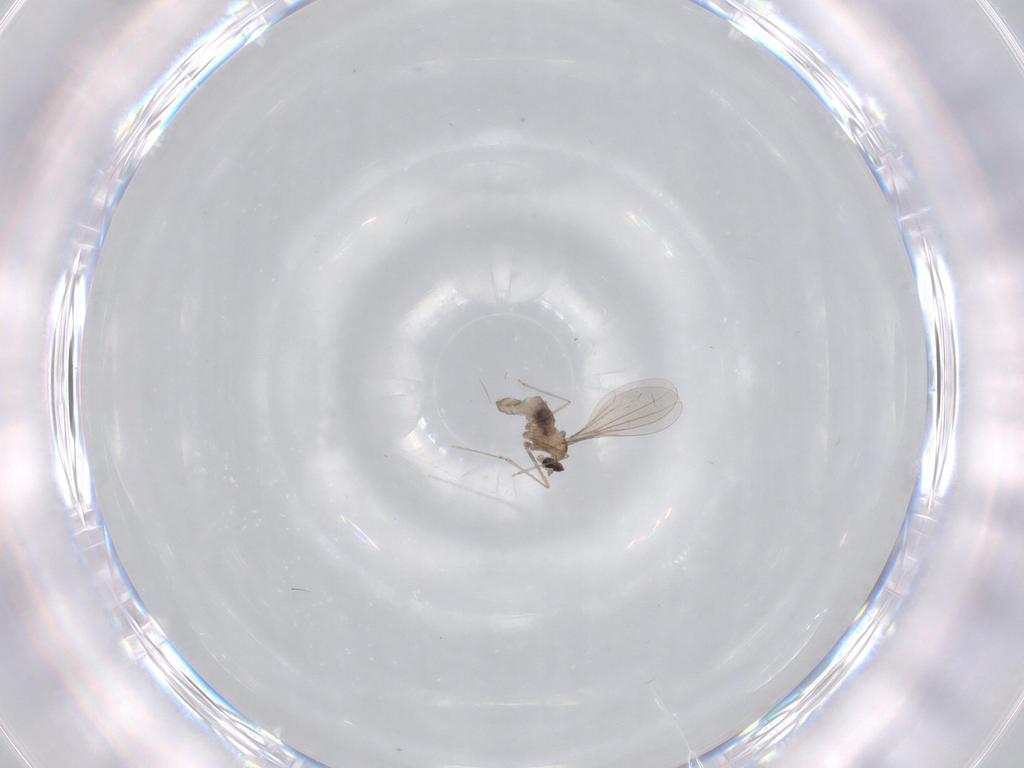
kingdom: Animalia
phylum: Arthropoda
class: Insecta
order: Diptera
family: Cecidomyiidae
